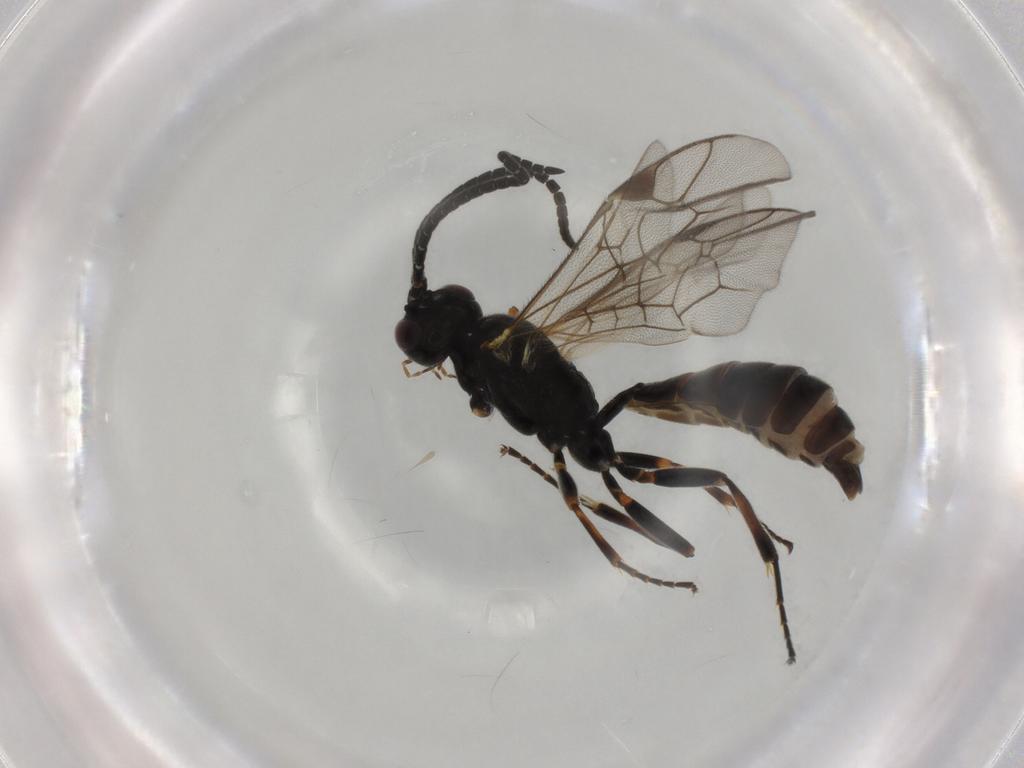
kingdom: Animalia
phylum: Arthropoda
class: Insecta
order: Hymenoptera
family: Ichneumonidae
